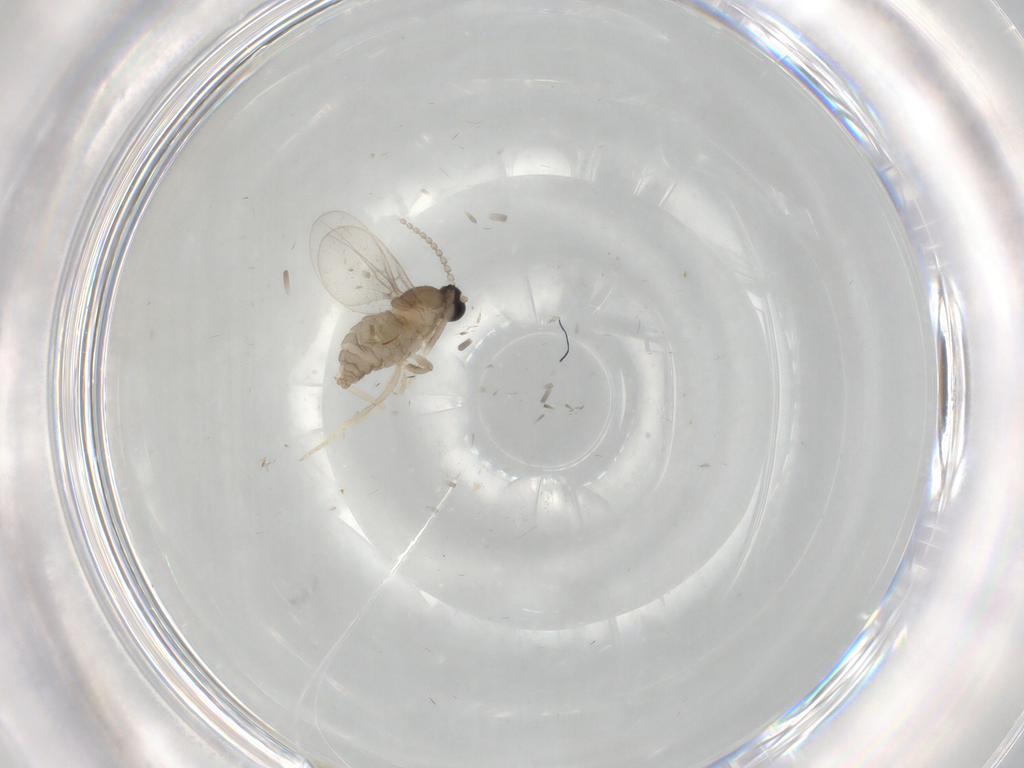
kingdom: Animalia
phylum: Arthropoda
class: Insecta
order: Diptera
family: Cecidomyiidae
